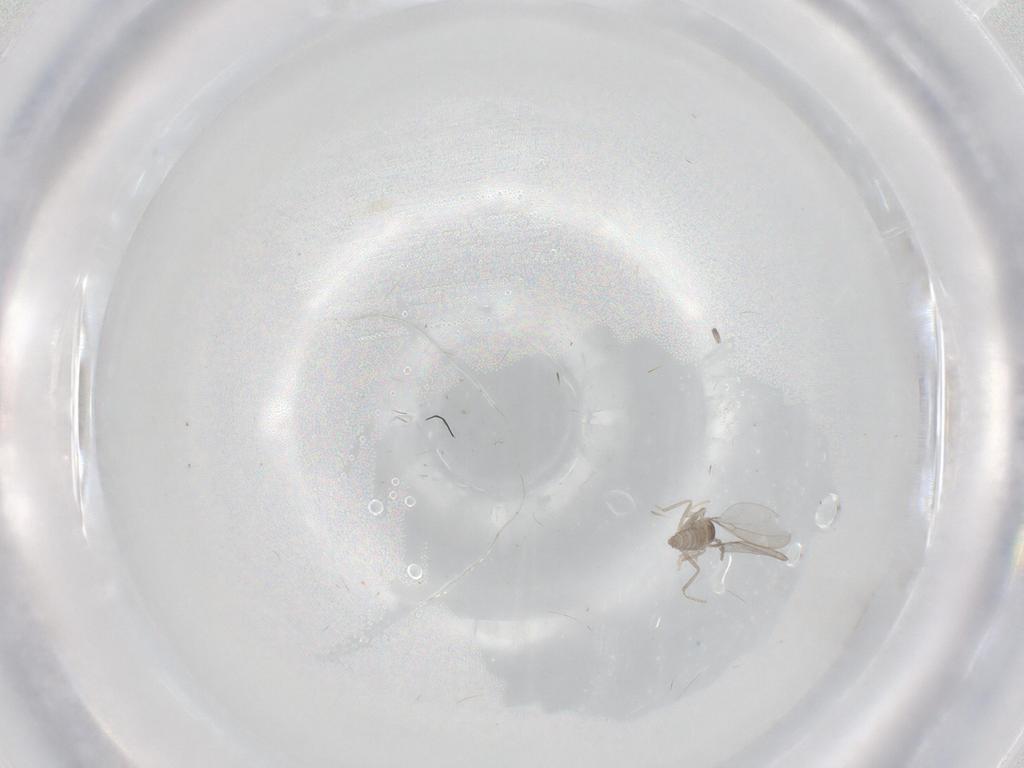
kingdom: Animalia
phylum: Arthropoda
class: Insecta
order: Diptera
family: Cecidomyiidae
